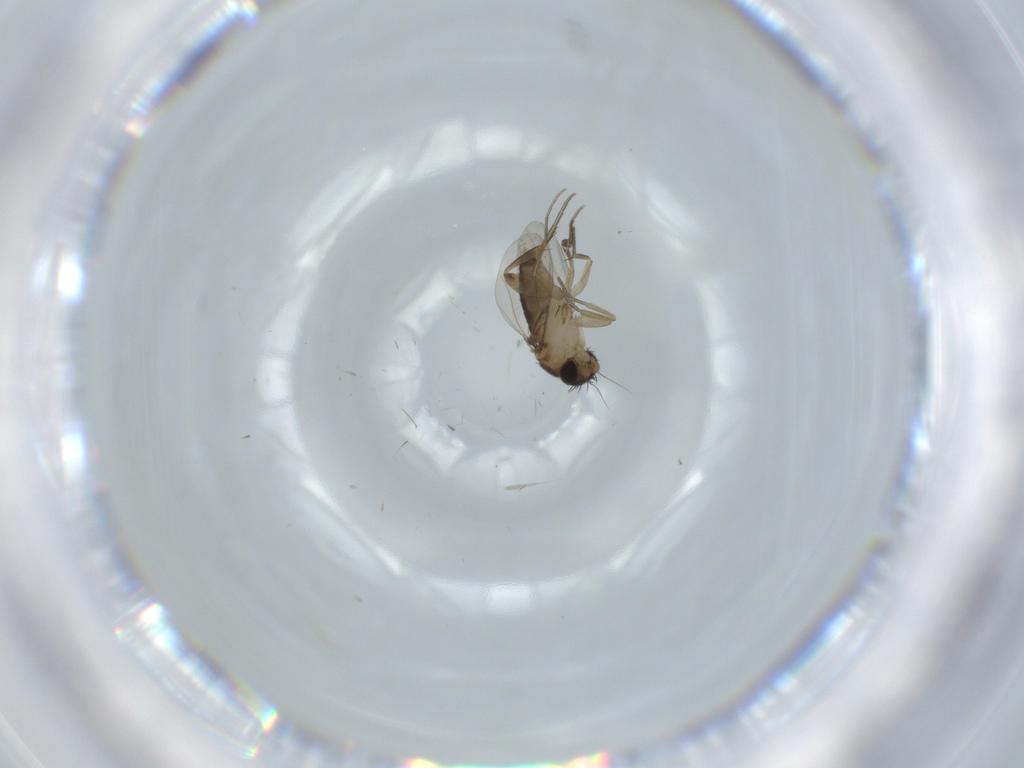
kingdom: Animalia
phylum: Arthropoda
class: Insecta
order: Diptera
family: Phoridae
